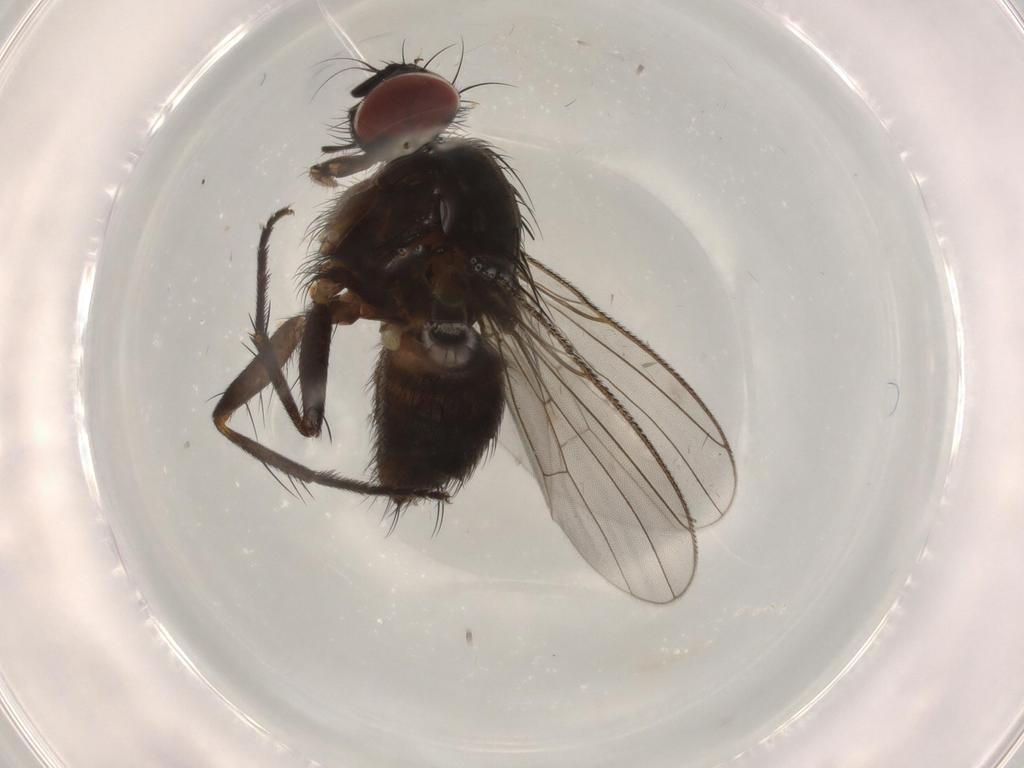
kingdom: Animalia
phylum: Arthropoda
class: Insecta
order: Diptera
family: Muscidae
